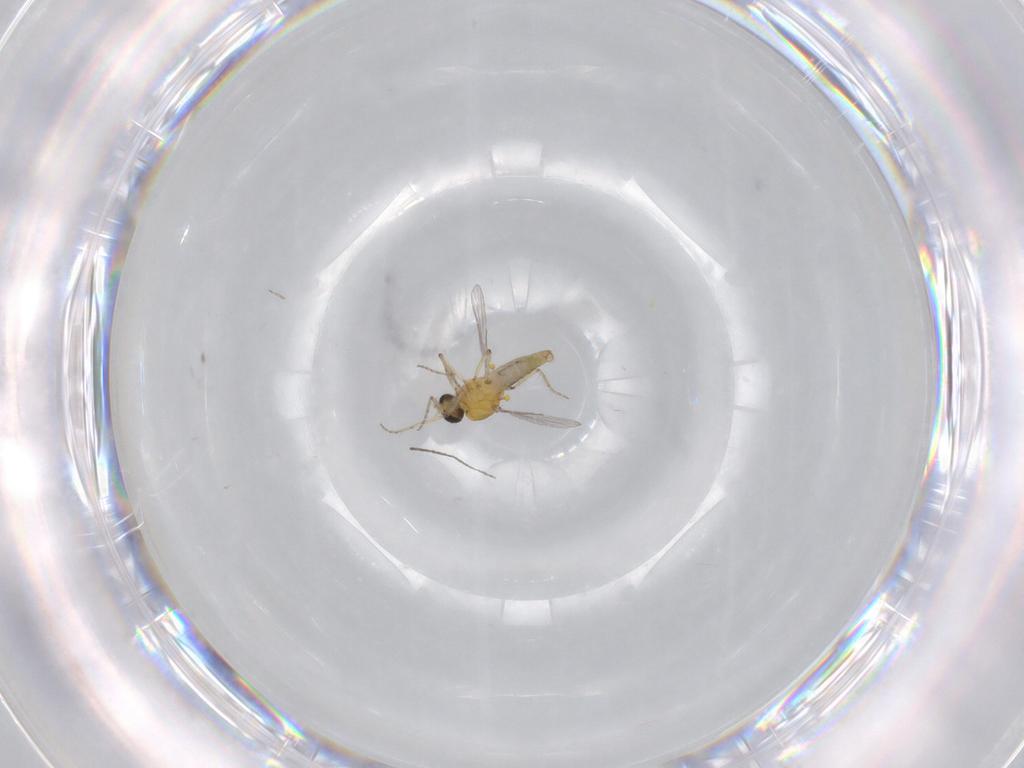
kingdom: Animalia
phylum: Arthropoda
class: Insecta
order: Diptera
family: Ceratopogonidae
